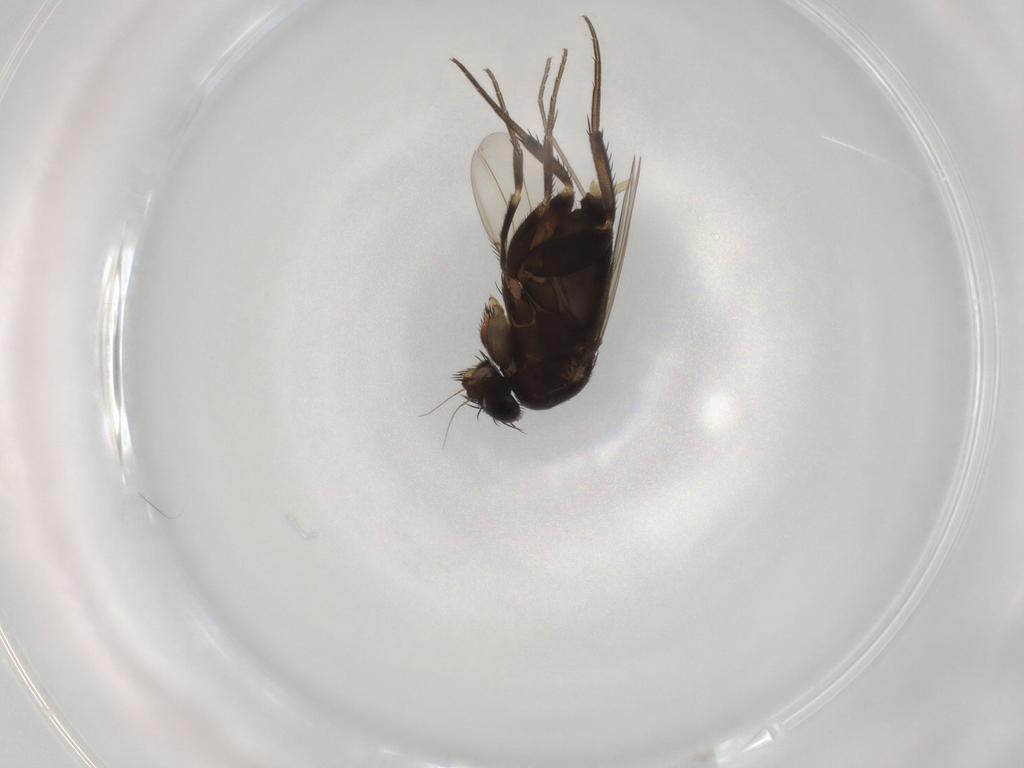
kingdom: Animalia
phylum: Arthropoda
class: Insecta
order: Diptera
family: Phoridae
